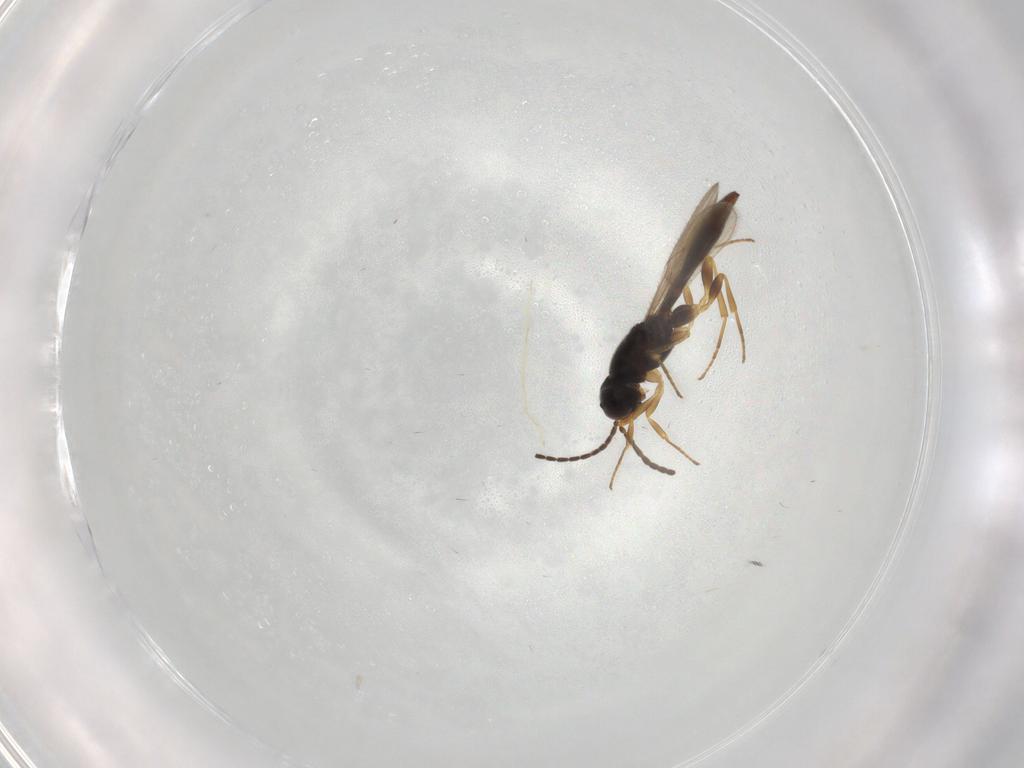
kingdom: Animalia
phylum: Arthropoda
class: Insecta
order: Hymenoptera
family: Scelionidae
